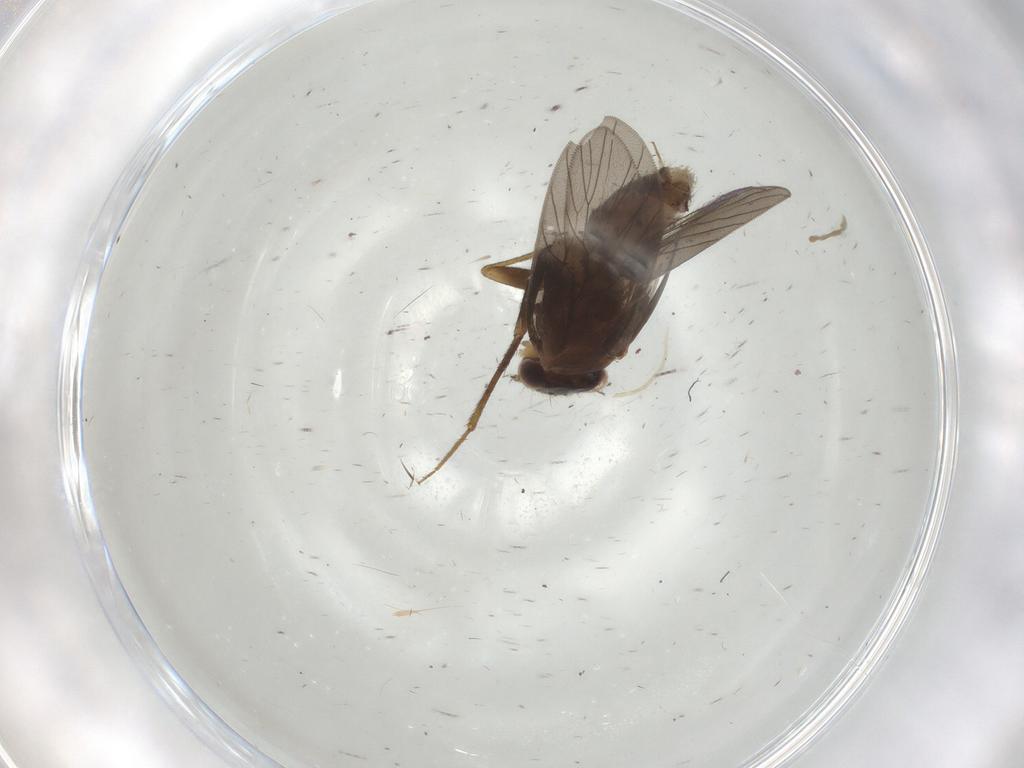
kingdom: Animalia
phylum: Arthropoda
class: Insecta
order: Psocodea
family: Lepidopsocidae
